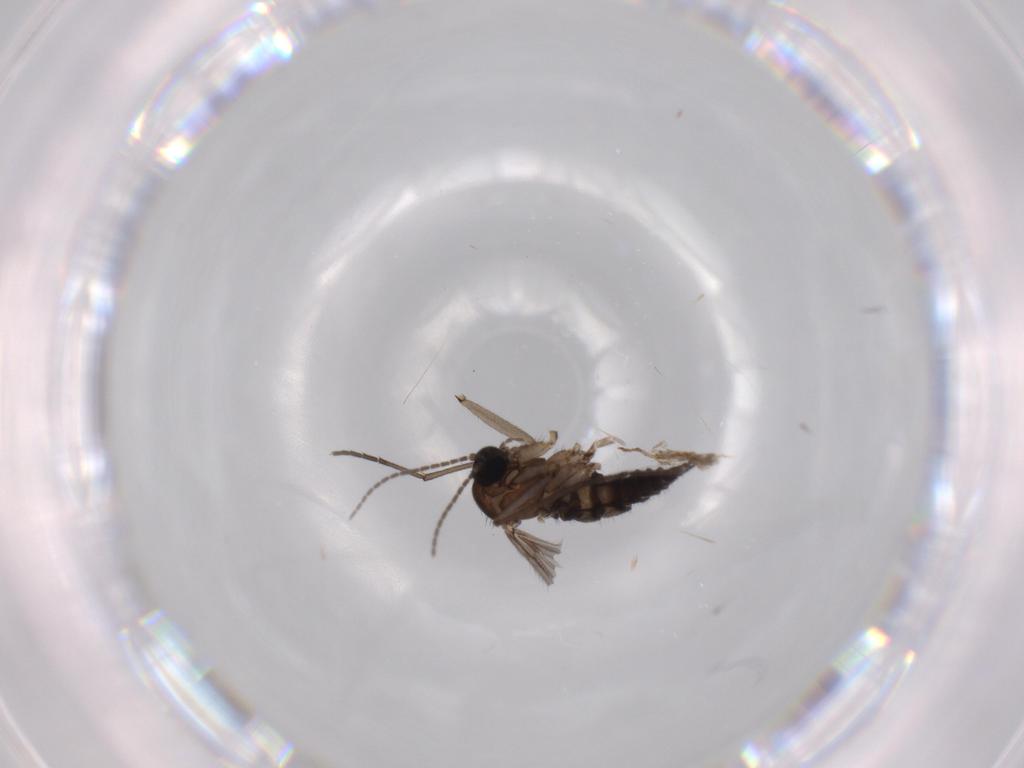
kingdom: Animalia
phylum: Arthropoda
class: Insecta
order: Diptera
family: Sciaridae
